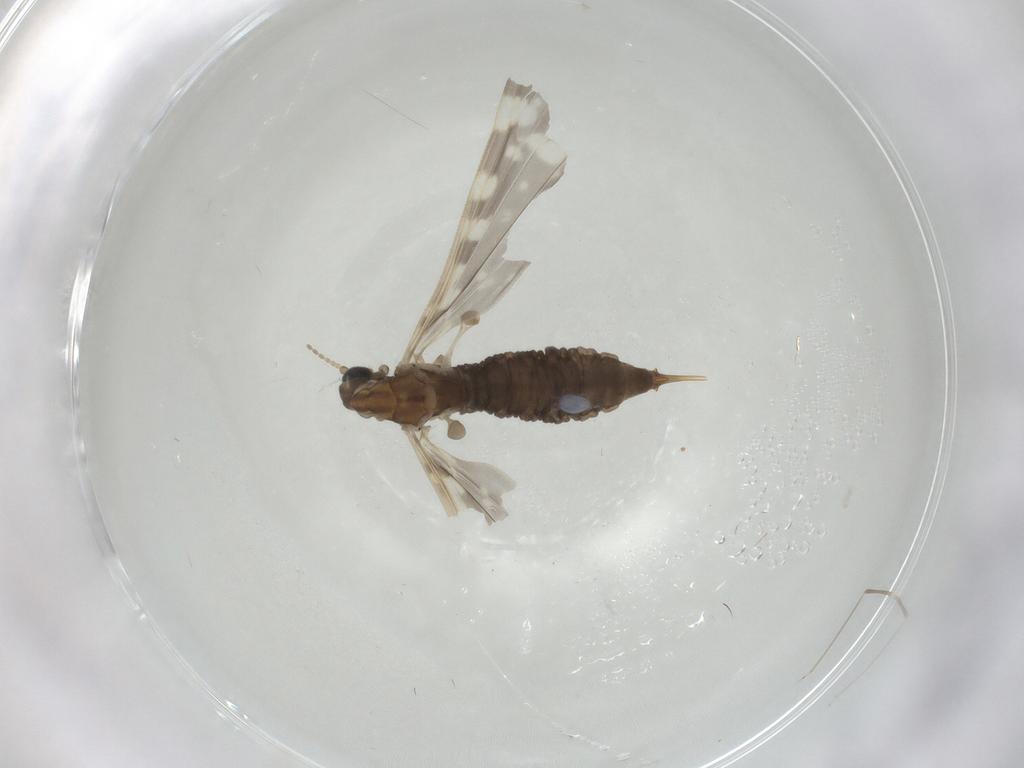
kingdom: Animalia
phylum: Arthropoda
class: Insecta
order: Diptera
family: Limoniidae
